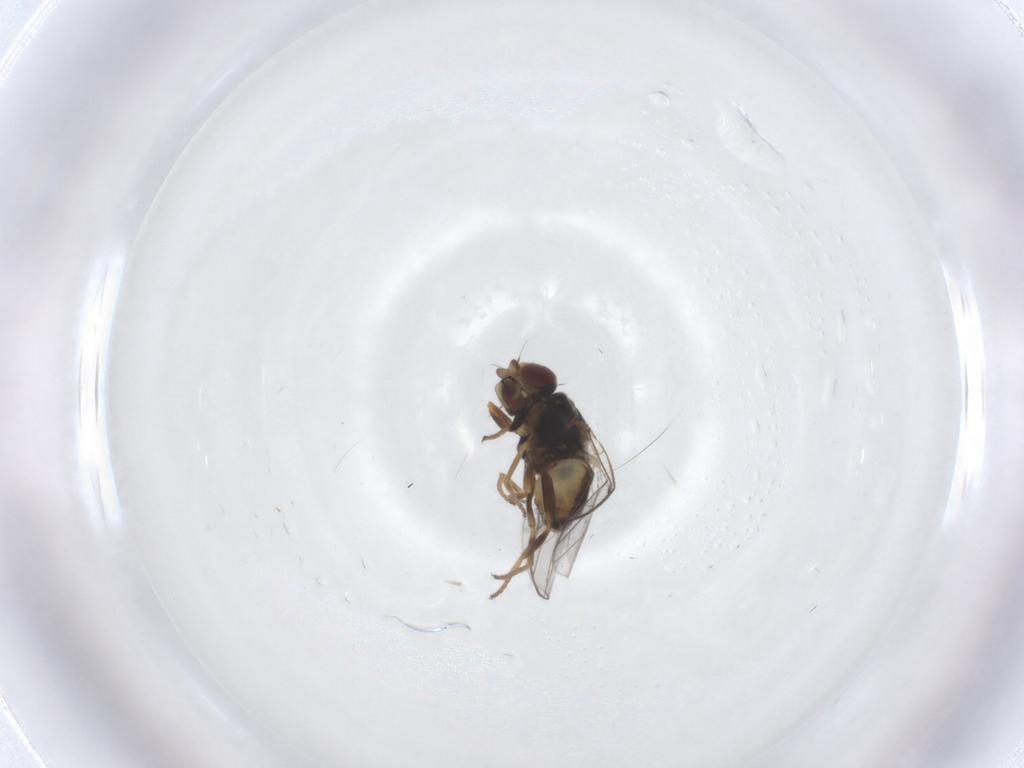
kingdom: Animalia
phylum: Arthropoda
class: Insecta
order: Diptera
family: Chloropidae
